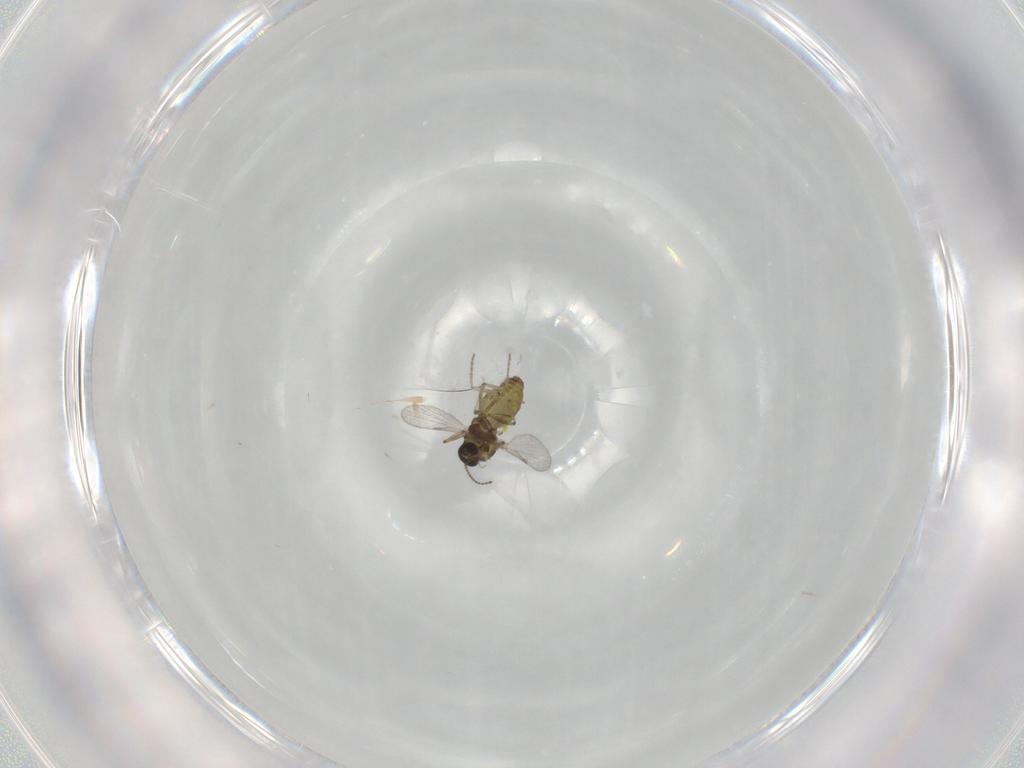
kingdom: Animalia
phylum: Arthropoda
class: Insecta
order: Diptera
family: Ceratopogonidae
